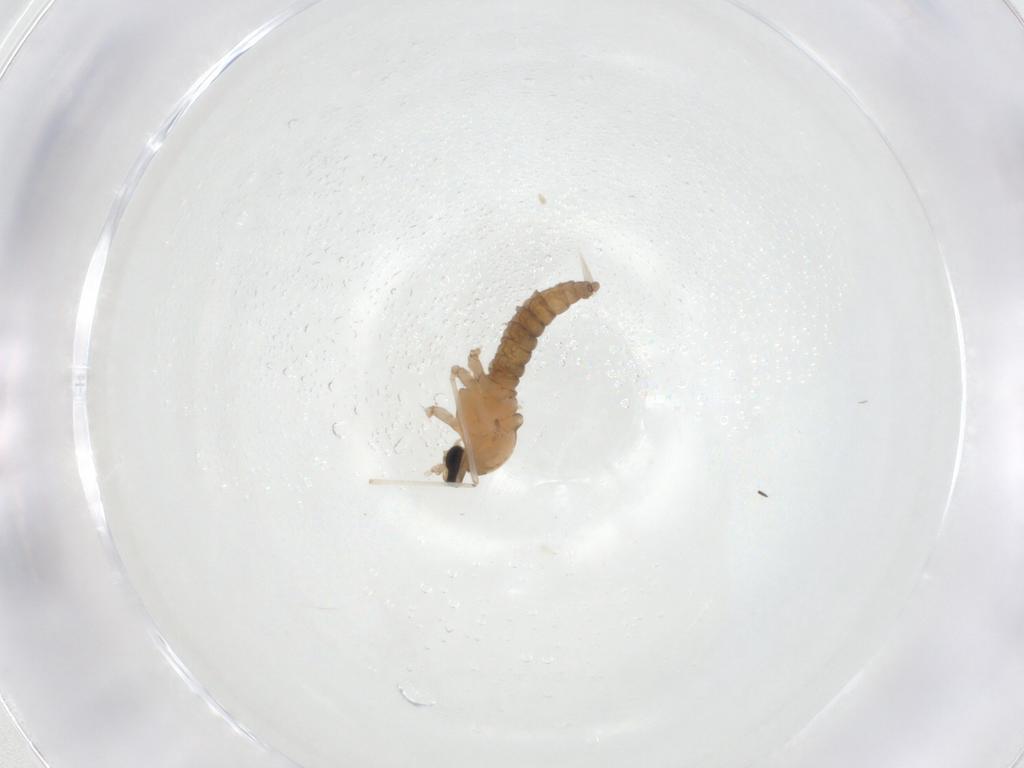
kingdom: Animalia
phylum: Arthropoda
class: Insecta
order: Diptera
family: Cecidomyiidae
